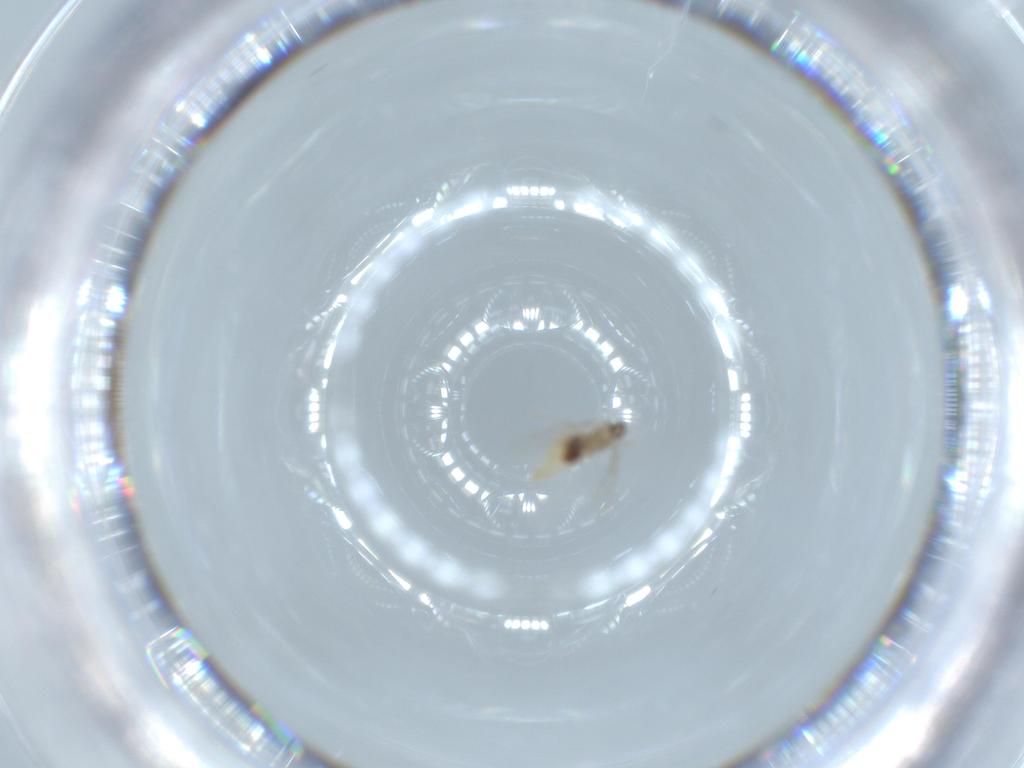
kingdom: Animalia
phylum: Arthropoda
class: Insecta
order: Diptera
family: Cecidomyiidae
